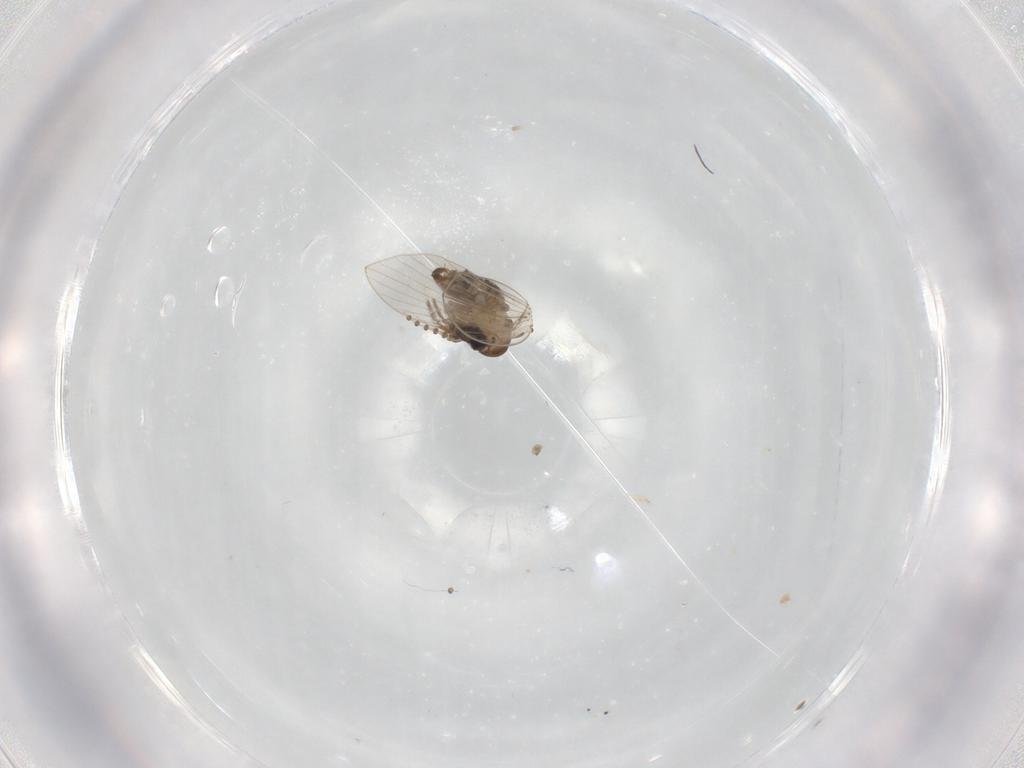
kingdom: Animalia
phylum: Arthropoda
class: Insecta
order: Diptera
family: Psychodidae
